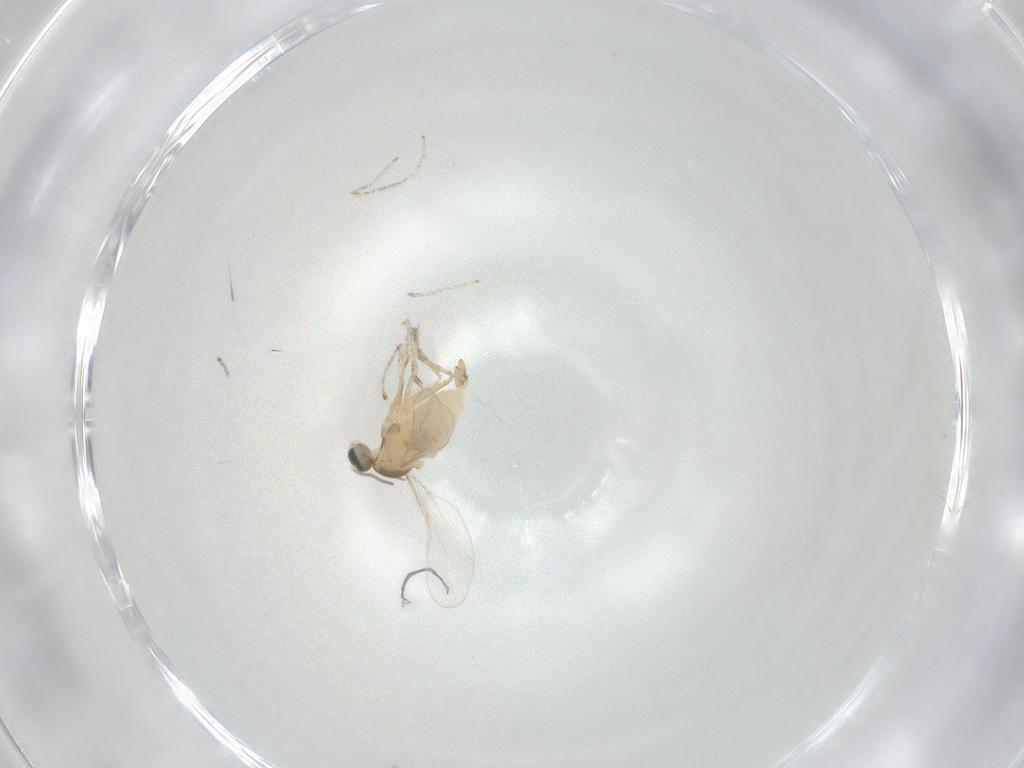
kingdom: Animalia
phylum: Arthropoda
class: Insecta
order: Diptera
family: Cecidomyiidae
